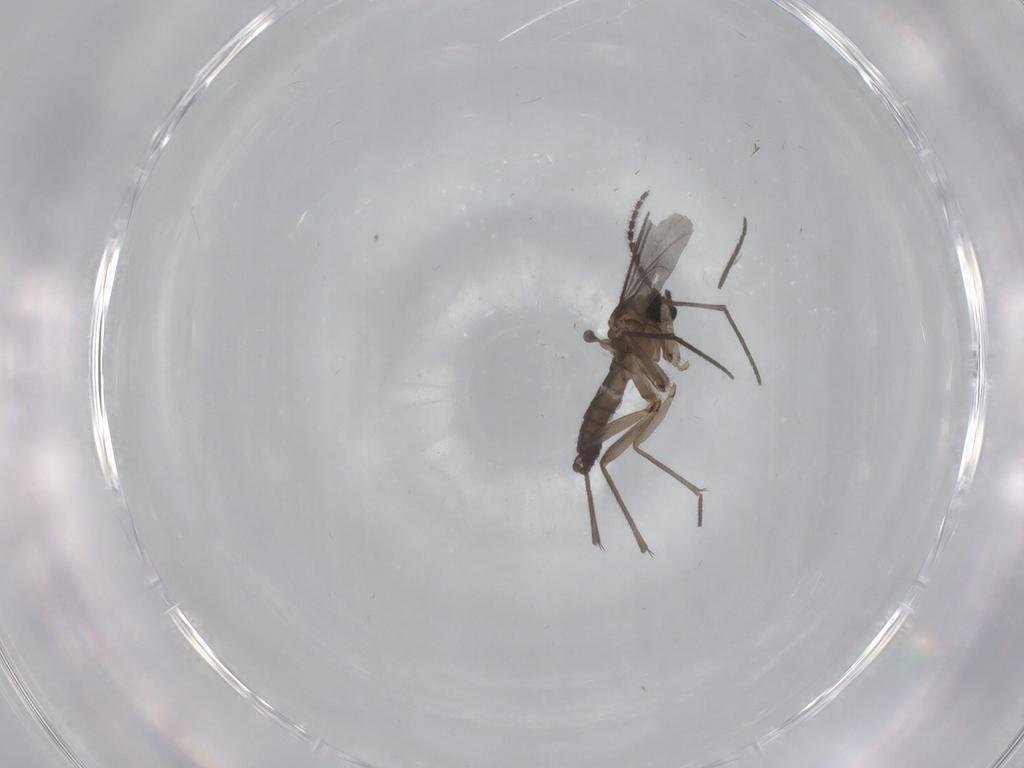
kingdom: Animalia
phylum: Arthropoda
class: Insecta
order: Diptera
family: Sciaridae
